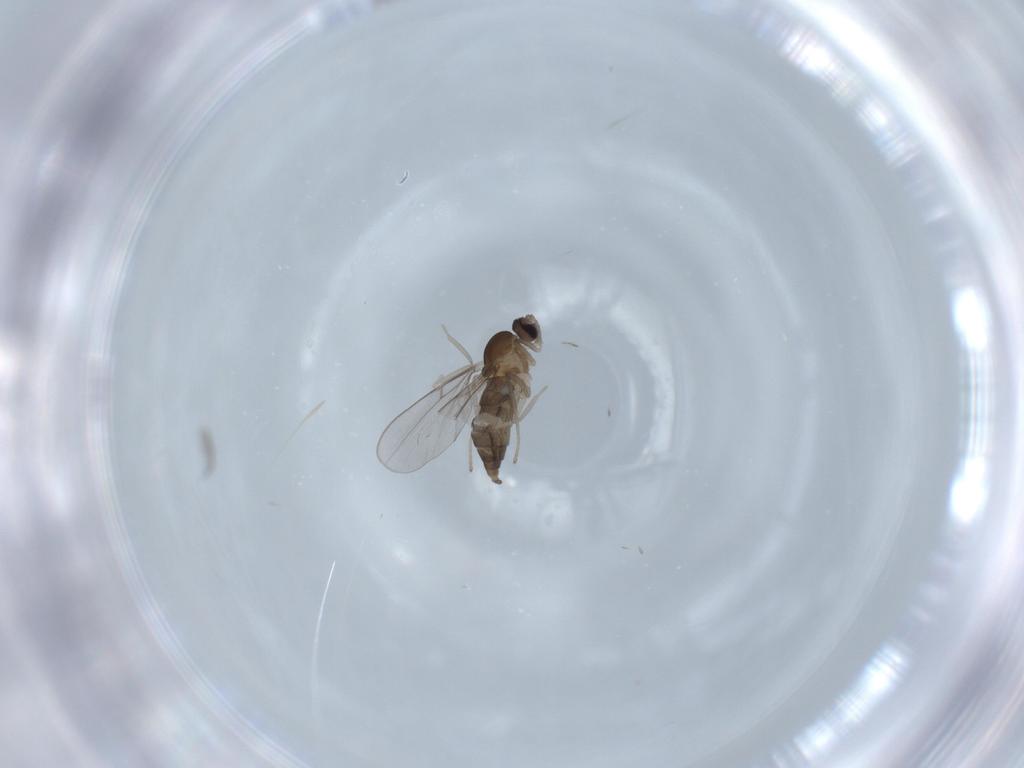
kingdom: Animalia
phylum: Arthropoda
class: Insecta
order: Diptera
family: Cecidomyiidae
